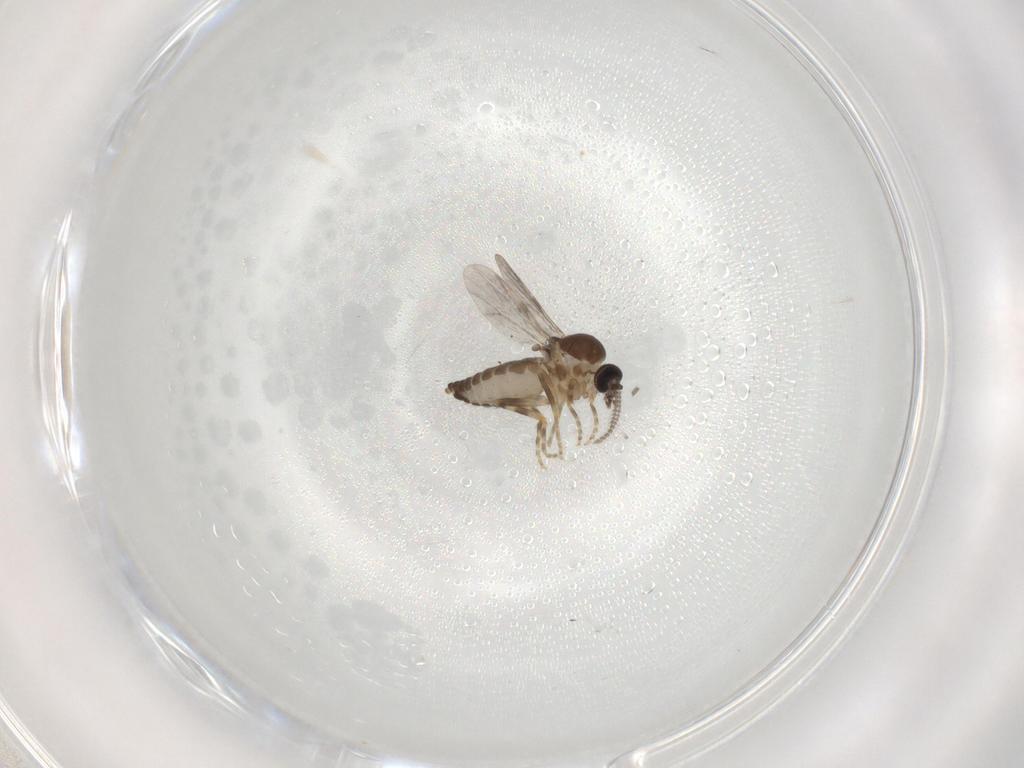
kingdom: Animalia
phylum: Arthropoda
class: Insecta
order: Diptera
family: Ceratopogonidae
